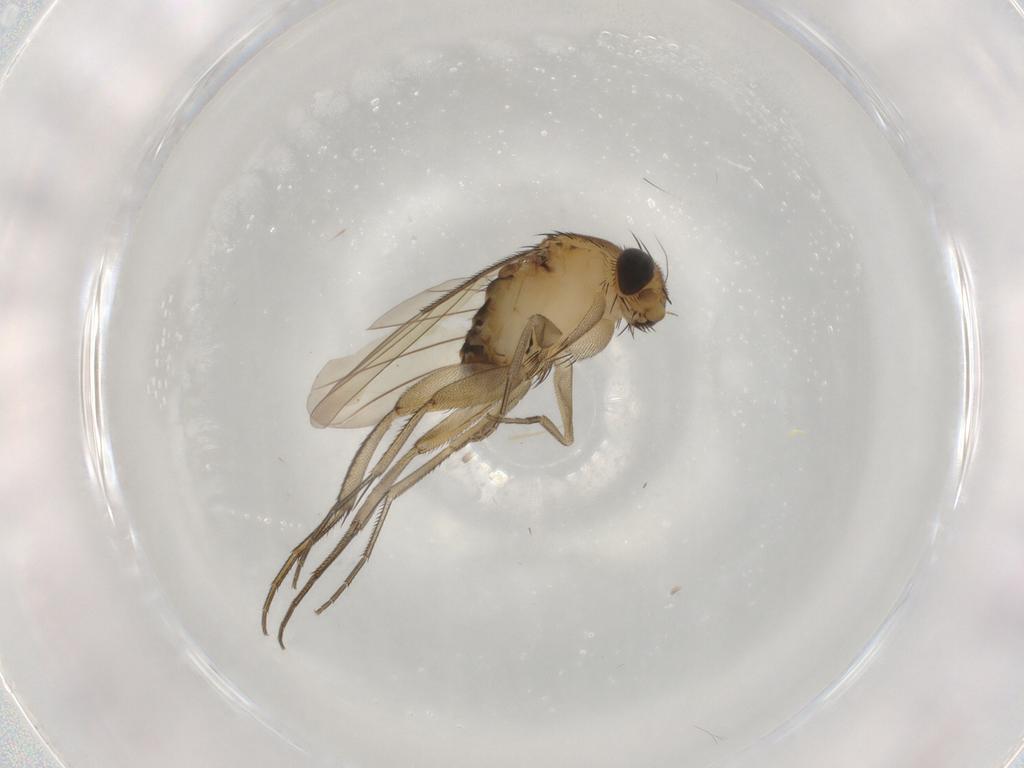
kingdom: Animalia
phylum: Arthropoda
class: Insecta
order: Diptera
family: Phoridae
